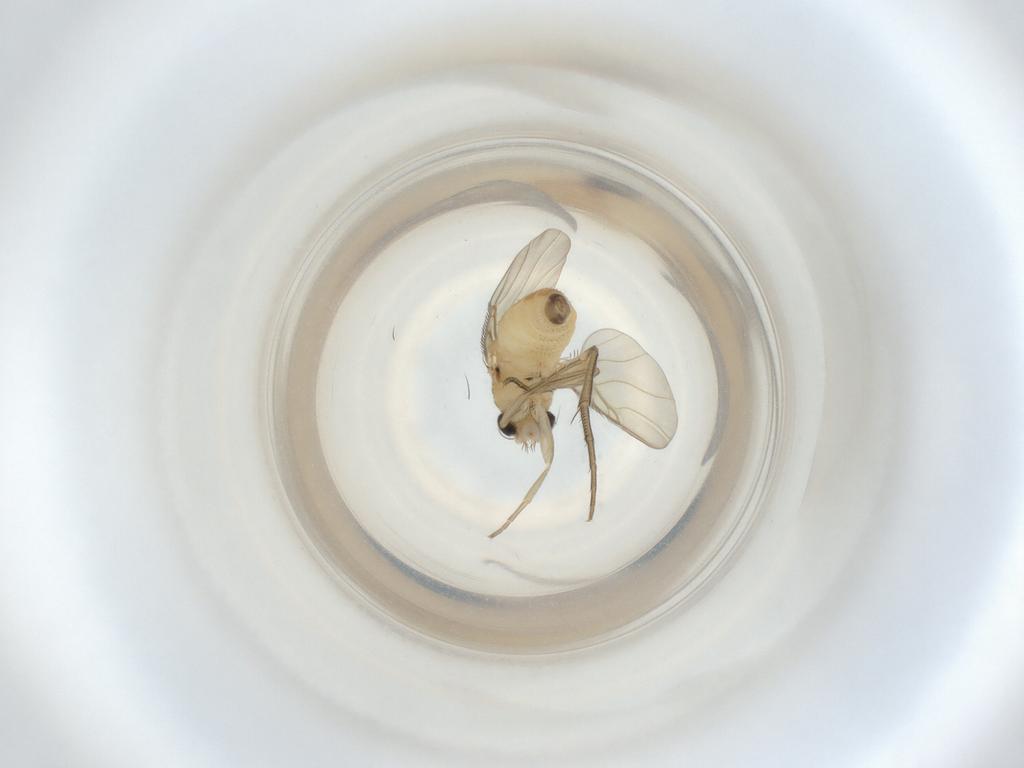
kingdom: Animalia
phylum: Arthropoda
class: Insecta
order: Diptera
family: Phoridae
